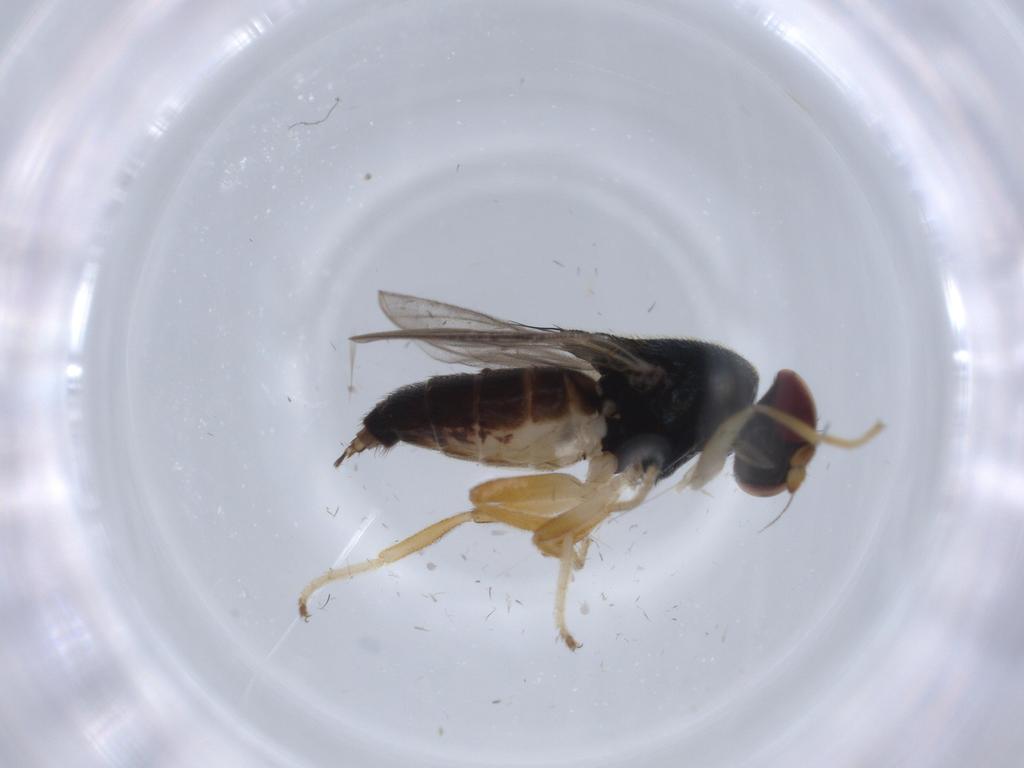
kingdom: Animalia
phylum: Arthropoda
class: Insecta
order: Diptera
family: Chloropidae
